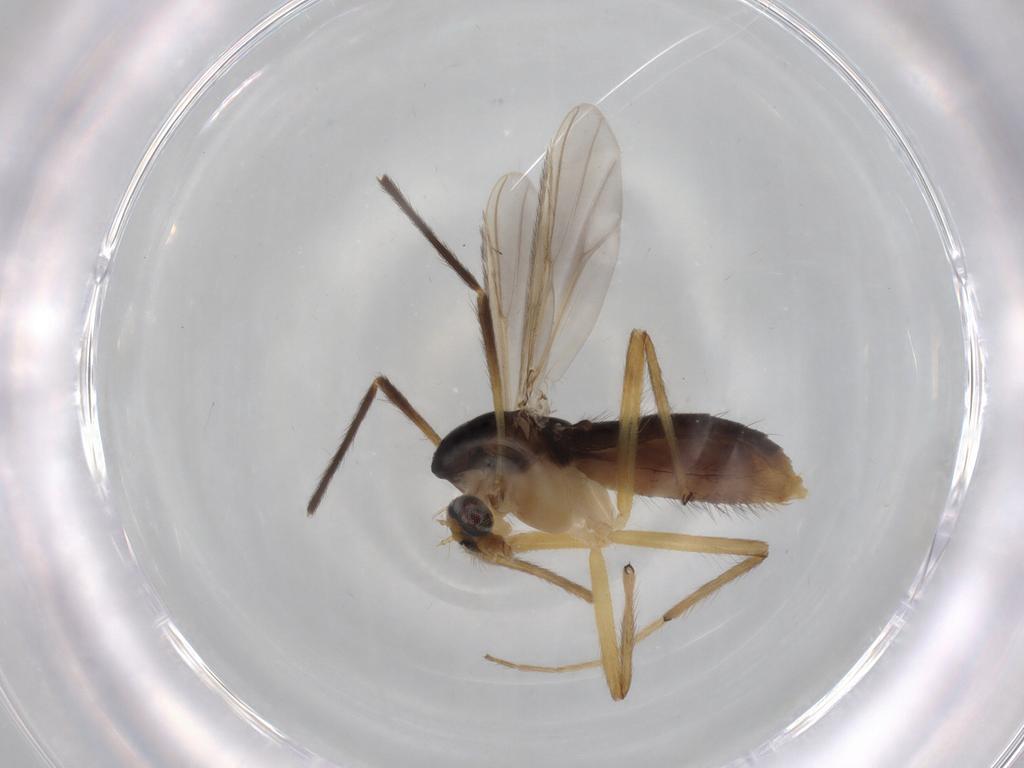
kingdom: Animalia
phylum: Arthropoda
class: Insecta
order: Diptera
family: Chironomidae
